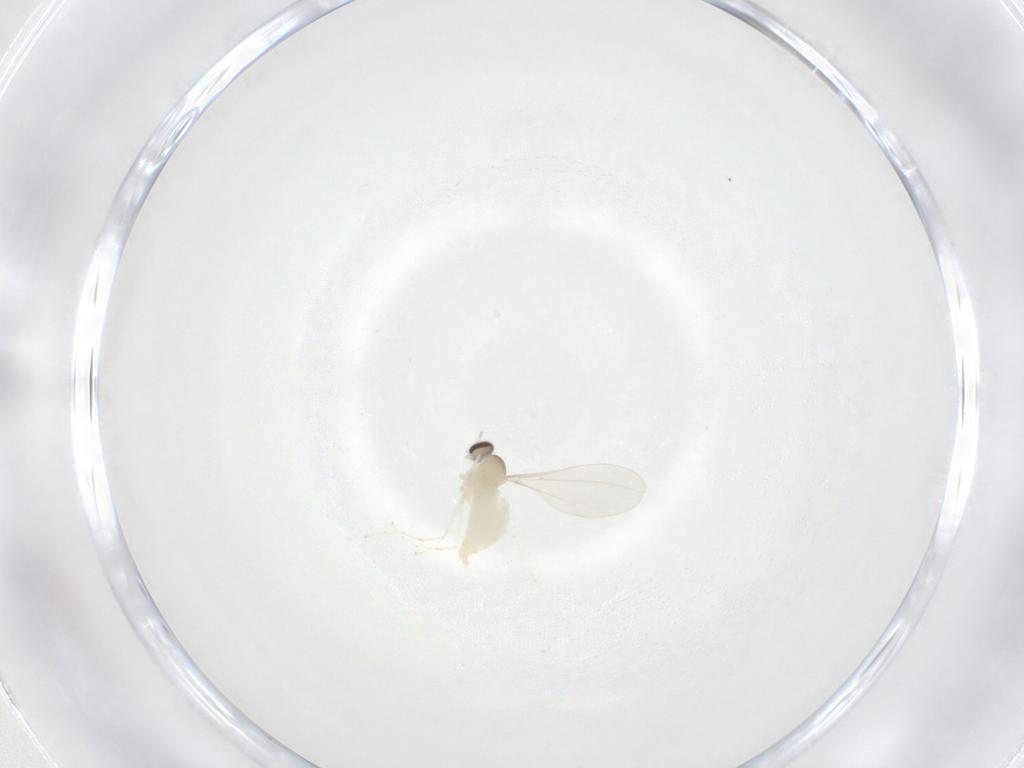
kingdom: Animalia
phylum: Arthropoda
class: Insecta
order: Diptera
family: Cecidomyiidae
